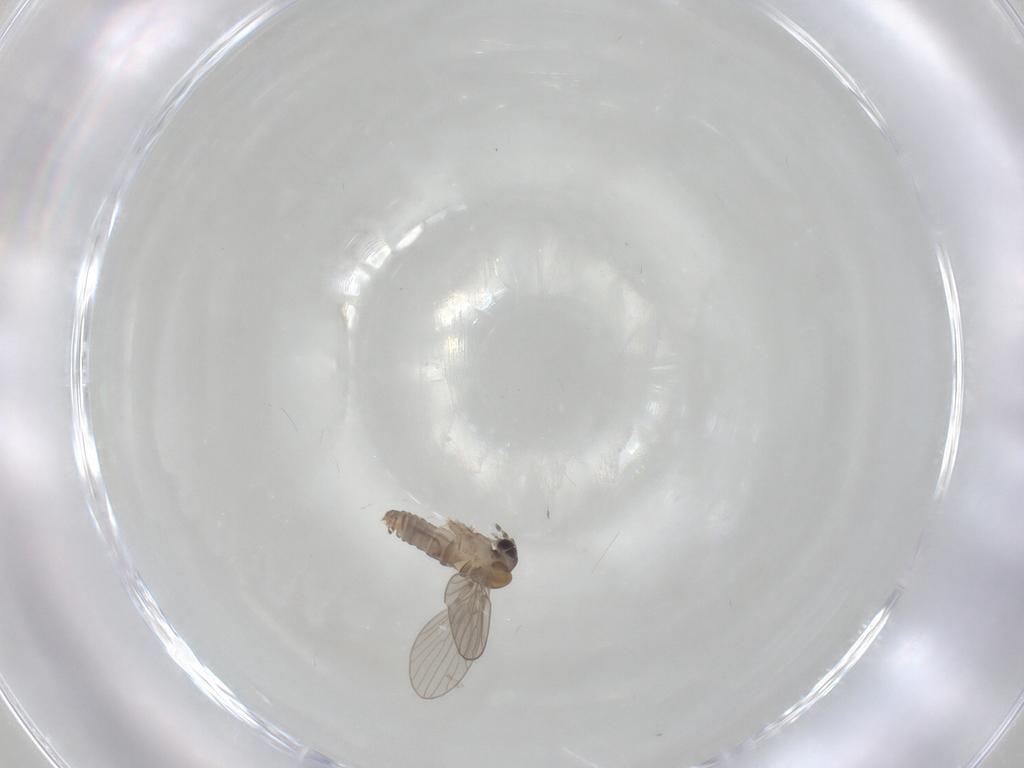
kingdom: Animalia
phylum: Arthropoda
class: Insecta
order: Diptera
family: Psychodidae
